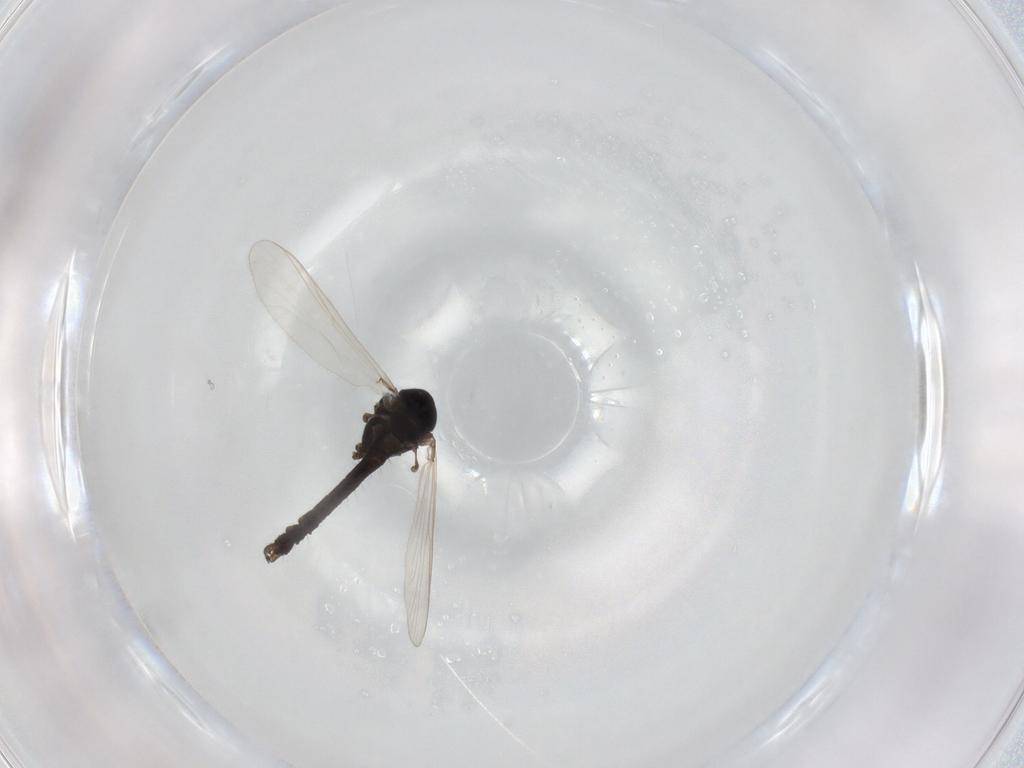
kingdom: Animalia
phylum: Arthropoda
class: Insecta
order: Diptera
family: Cecidomyiidae
